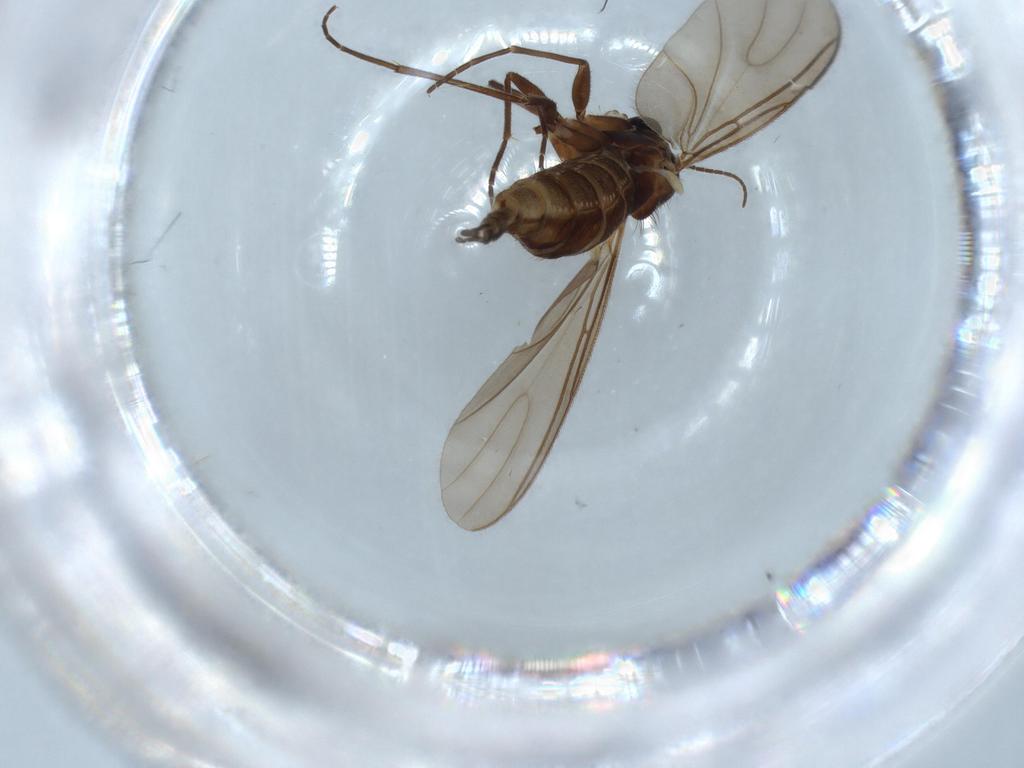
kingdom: Animalia
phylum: Arthropoda
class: Insecta
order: Diptera
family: Sciaridae
